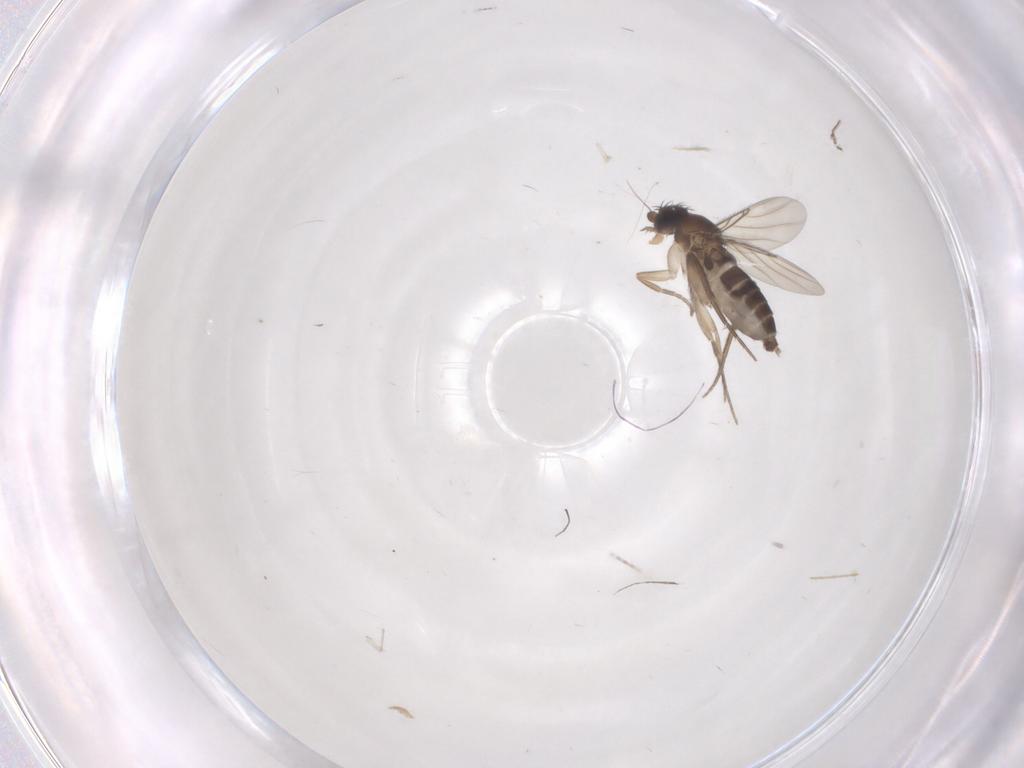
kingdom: Animalia
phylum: Arthropoda
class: Insecta
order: Diptera
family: Phoridae
